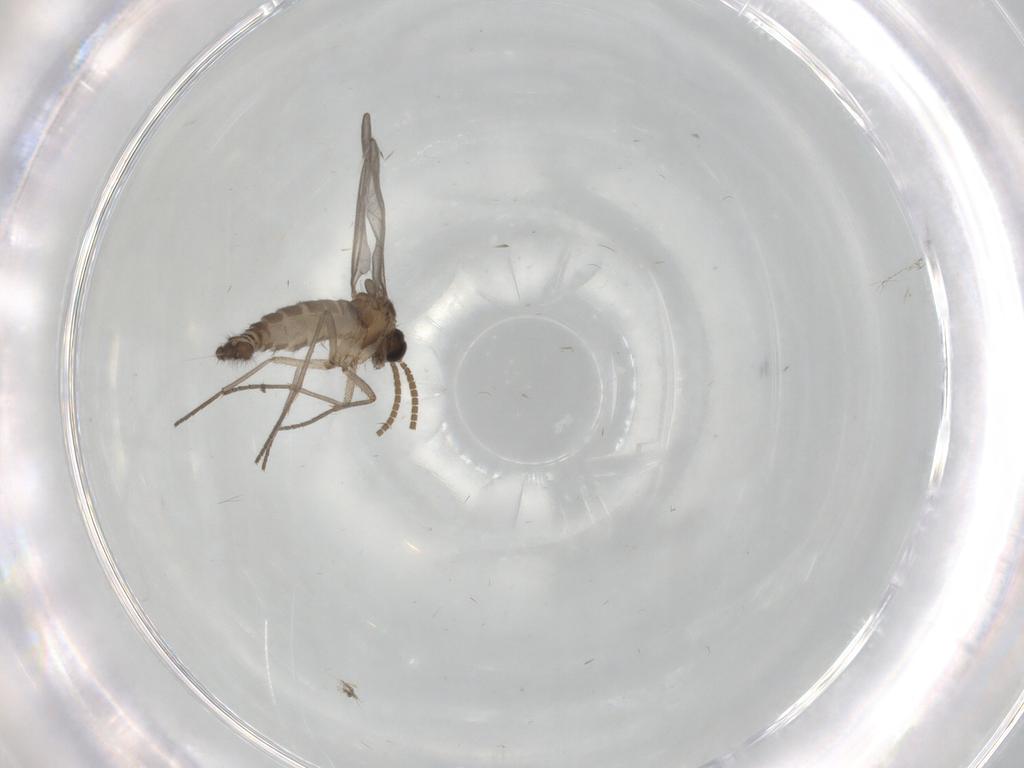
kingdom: Animalia
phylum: Arthropoda
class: Insecta
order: Diptera
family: Psychodidae
